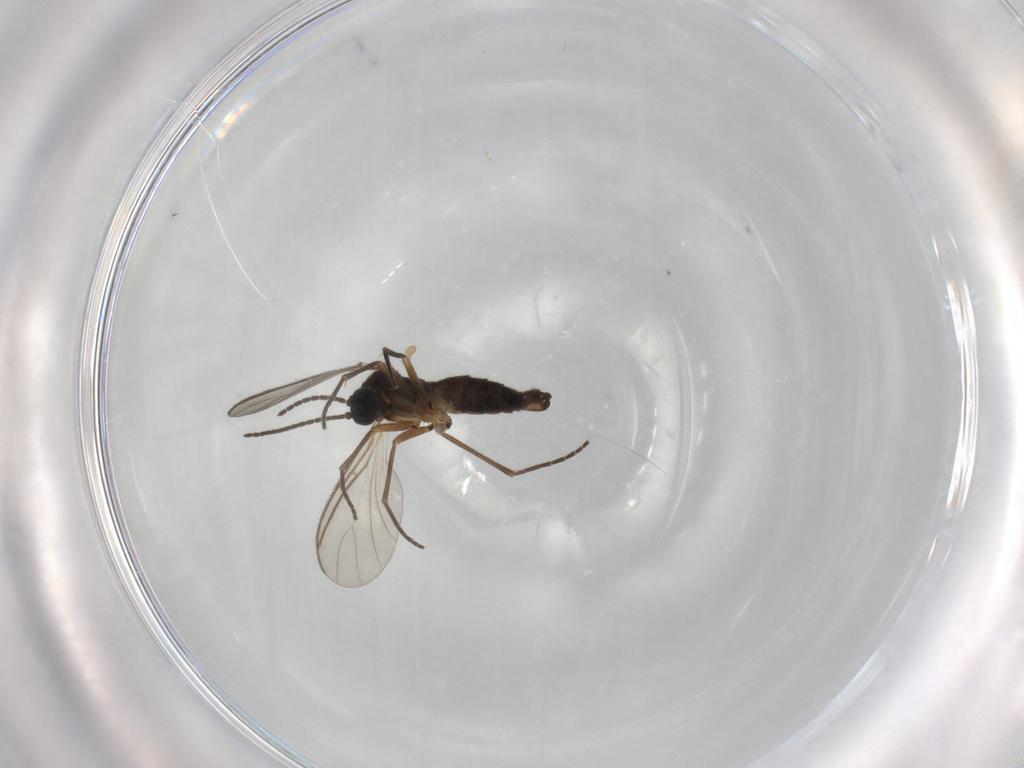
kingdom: Animalia
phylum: Arthropoda
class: Insecta
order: Diptera
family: Sciaridae
